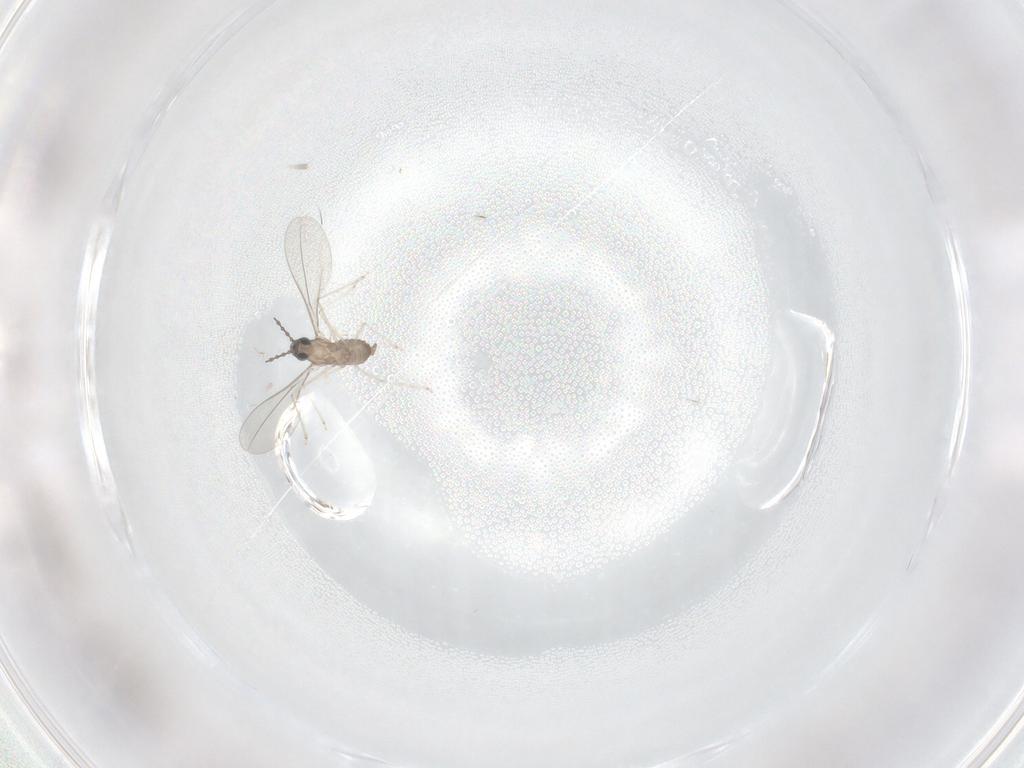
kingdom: Animalia
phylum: Arthropoda
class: Insecta
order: Diptera
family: Cecidomyiidae
